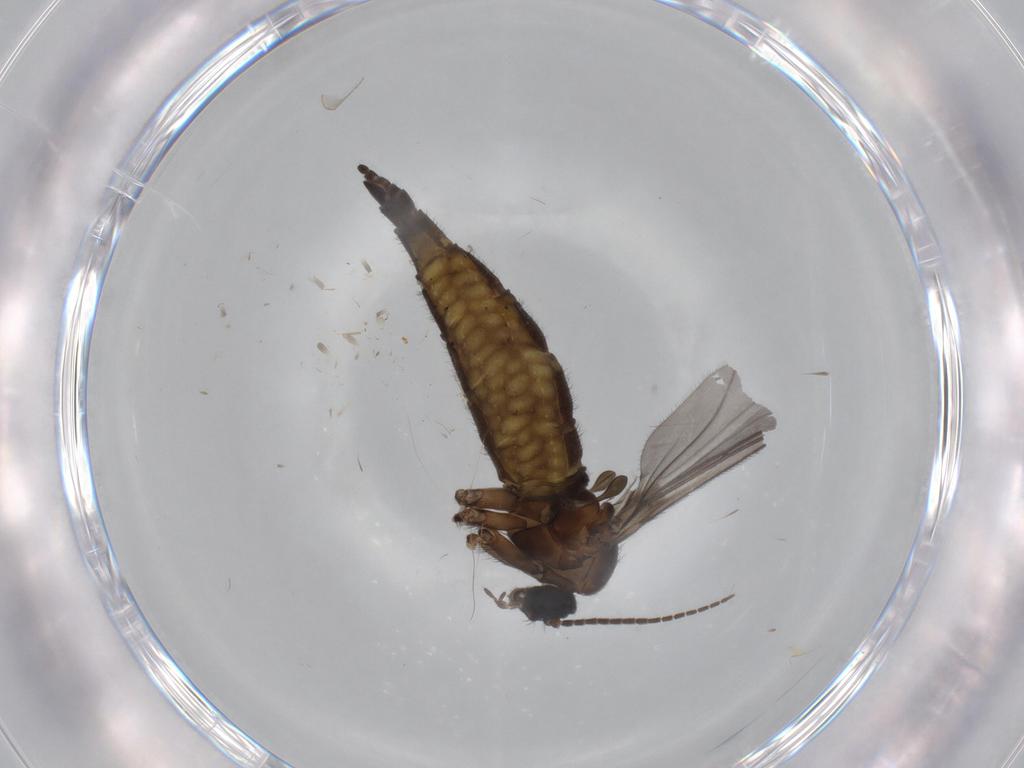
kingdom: Animalia
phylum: Arthropoda
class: Insecta
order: Diptera
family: Sciaridae
